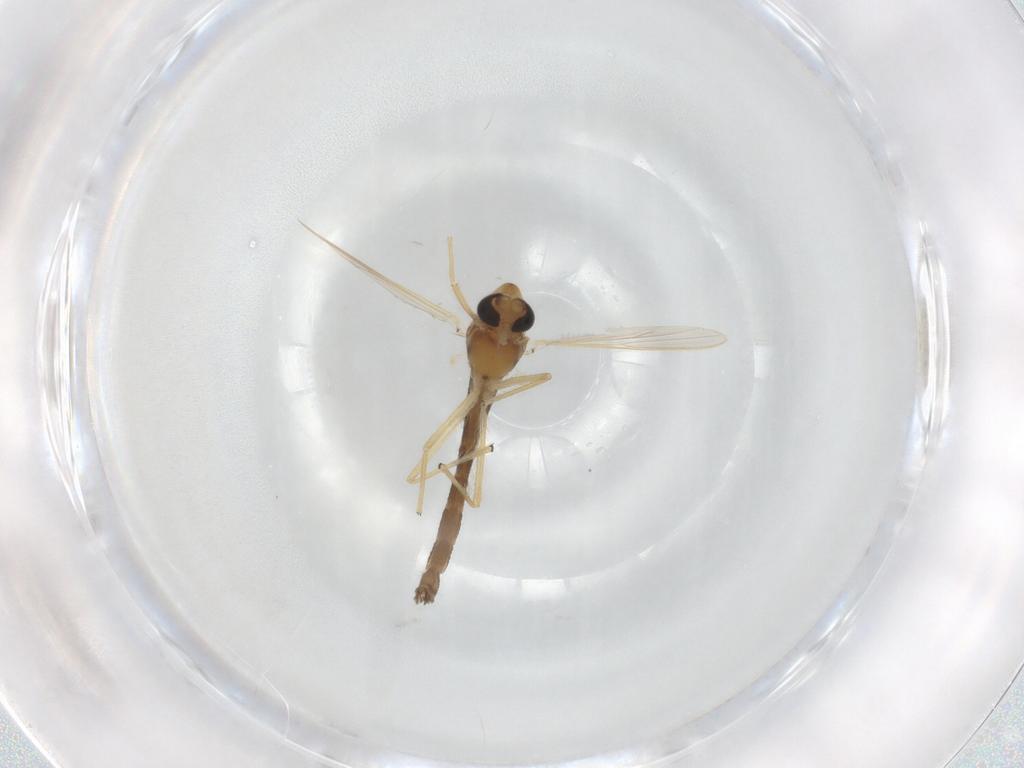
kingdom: Animalia
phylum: Arthropoda
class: Insecta
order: Diptera
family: Chironomidae
